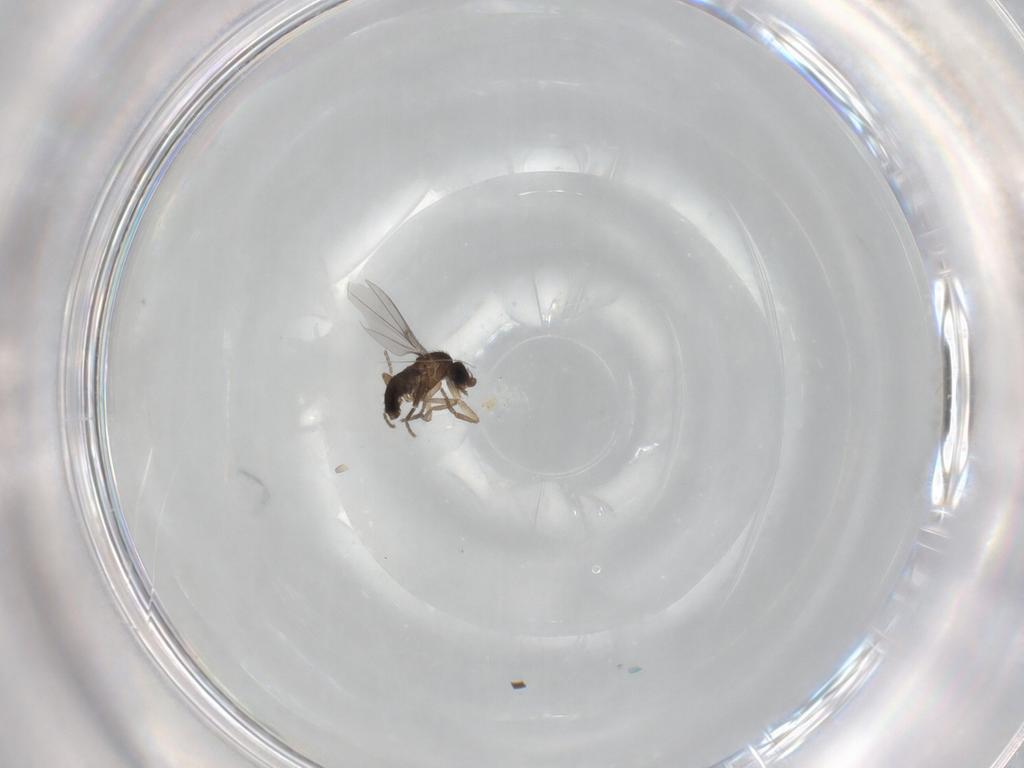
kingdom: Animalia
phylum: Arthropoda
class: Insecta
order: Diptera
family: Phoridae
